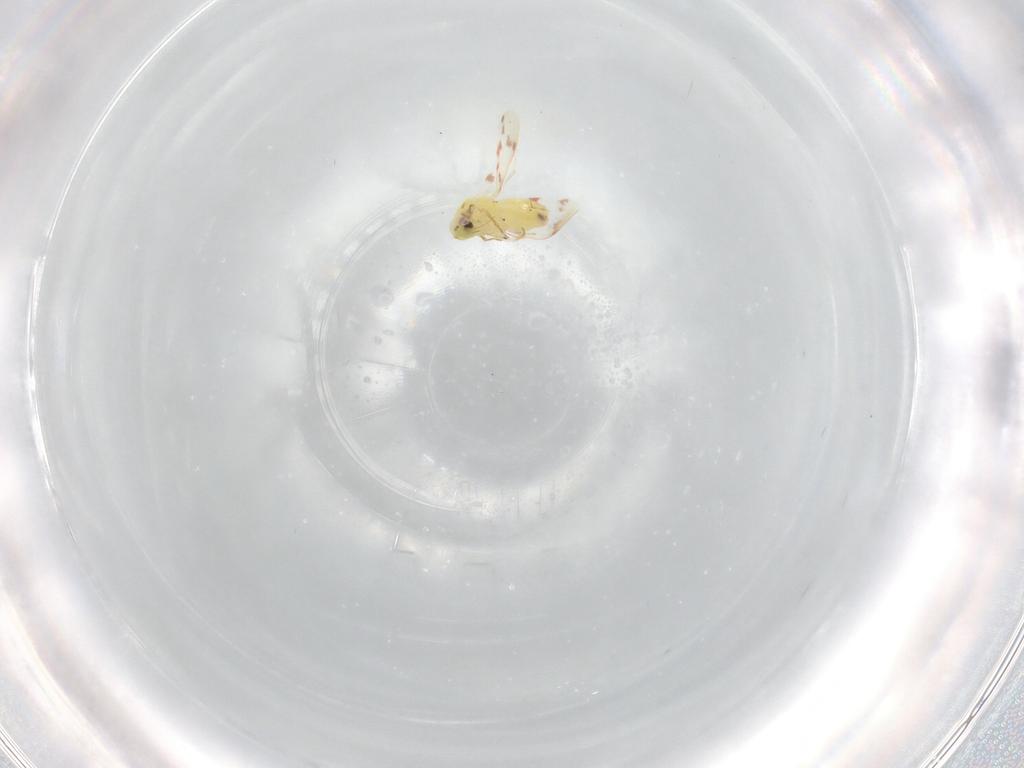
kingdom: Animalia
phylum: Arthropoda
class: Insecta
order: Hemiptera
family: Aleyrodidae
